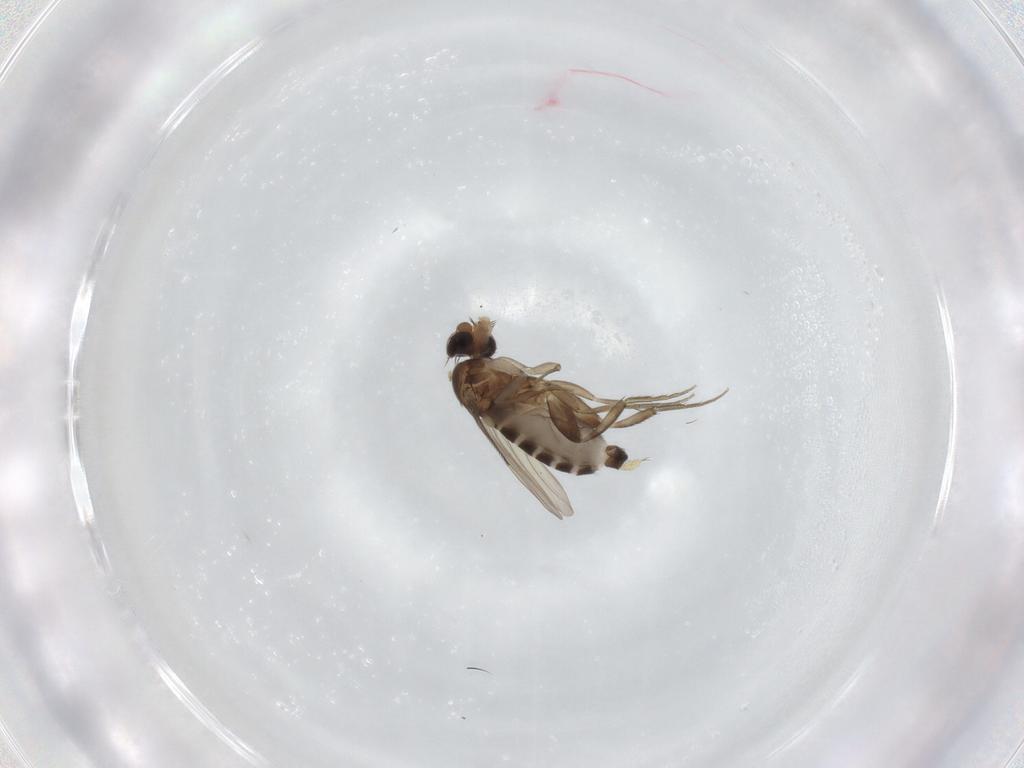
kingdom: Animalia
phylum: Arthropoda
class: Insecta
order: Diptera
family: Phoridae
